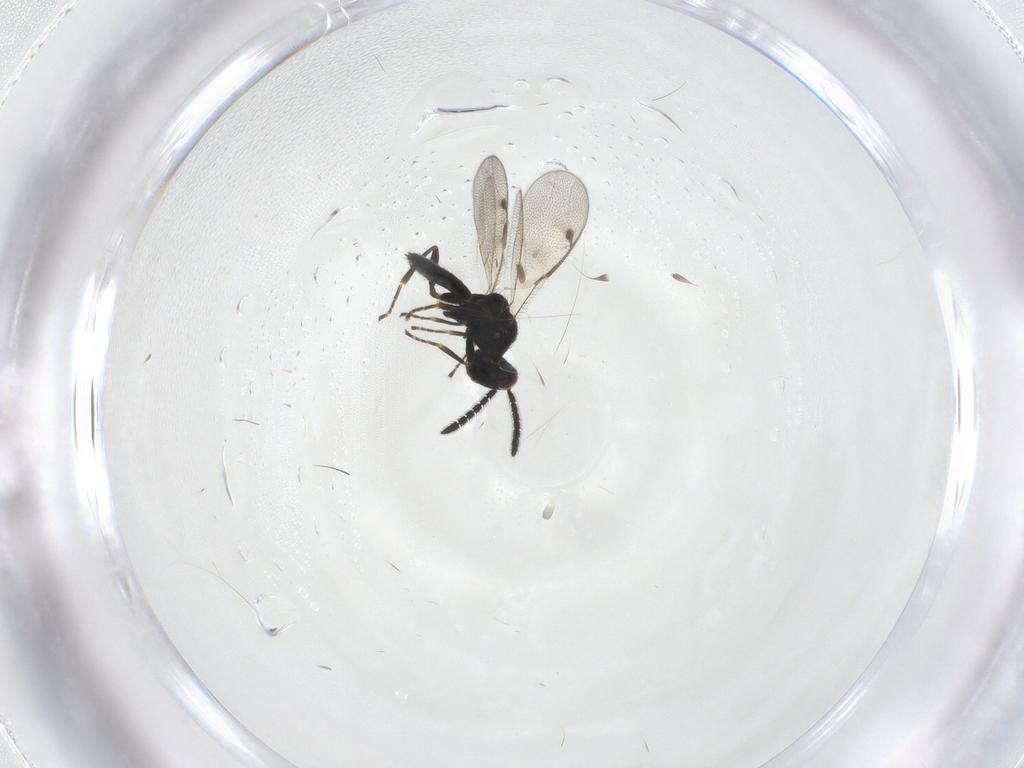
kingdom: Animalia
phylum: Arthropoda
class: Insecta
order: Hymenoptera
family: Pteromalidae
